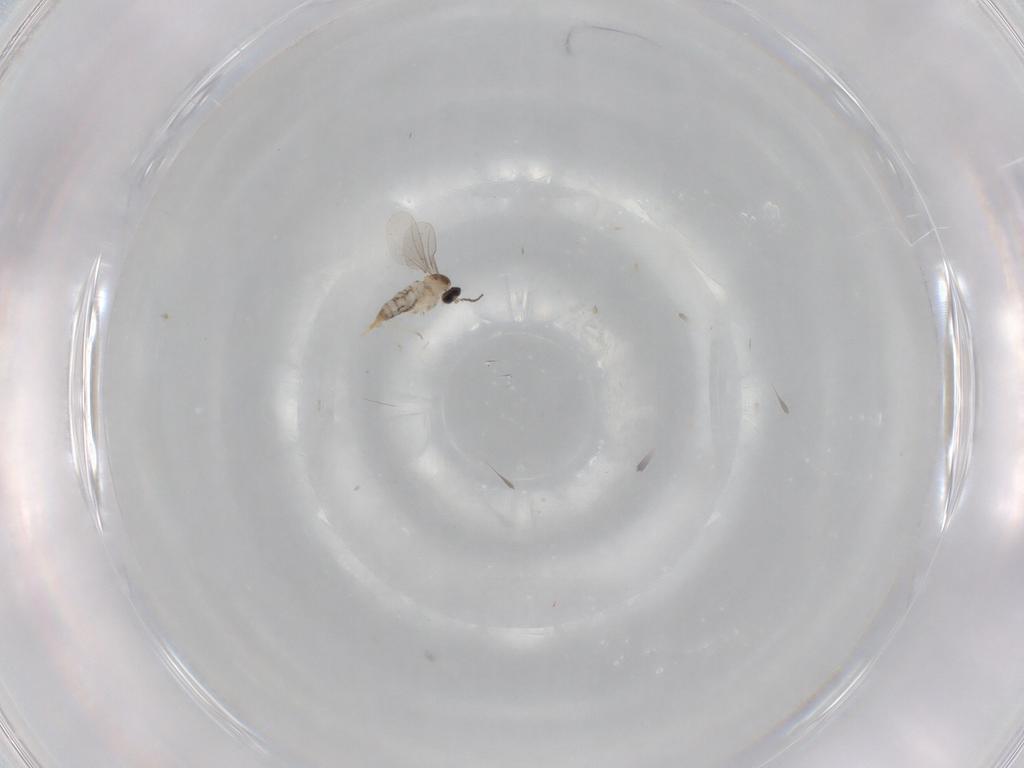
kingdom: Animalia
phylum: Arthropoda
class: Insecta
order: Diptera
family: Cecidomyiidae
